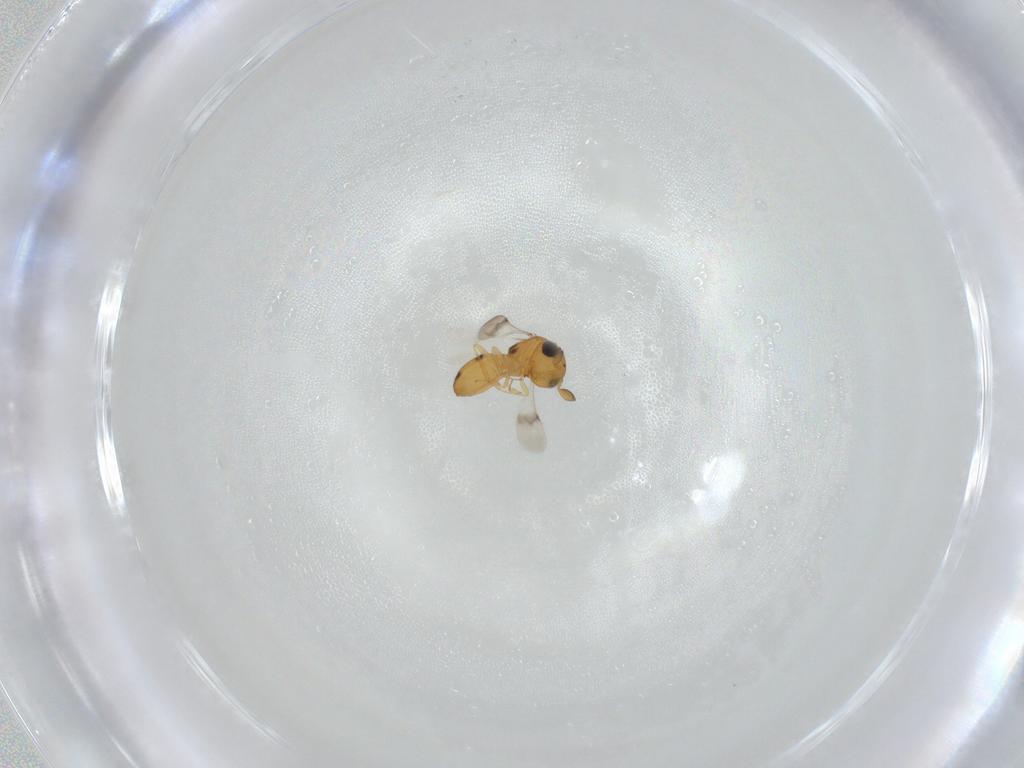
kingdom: Animalia
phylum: Arthropoda
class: Insecta
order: Hymenoptera
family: Scelionidae
